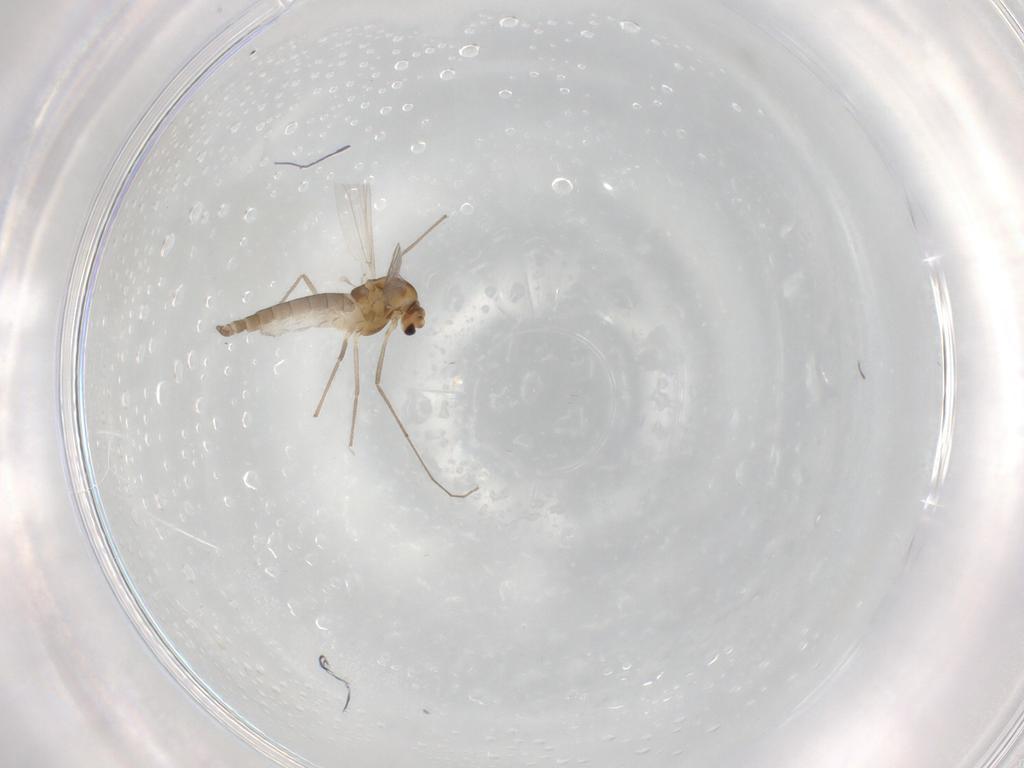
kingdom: Animalia
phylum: Arthropoda
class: Insecta
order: Diptera
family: Chironomidae
